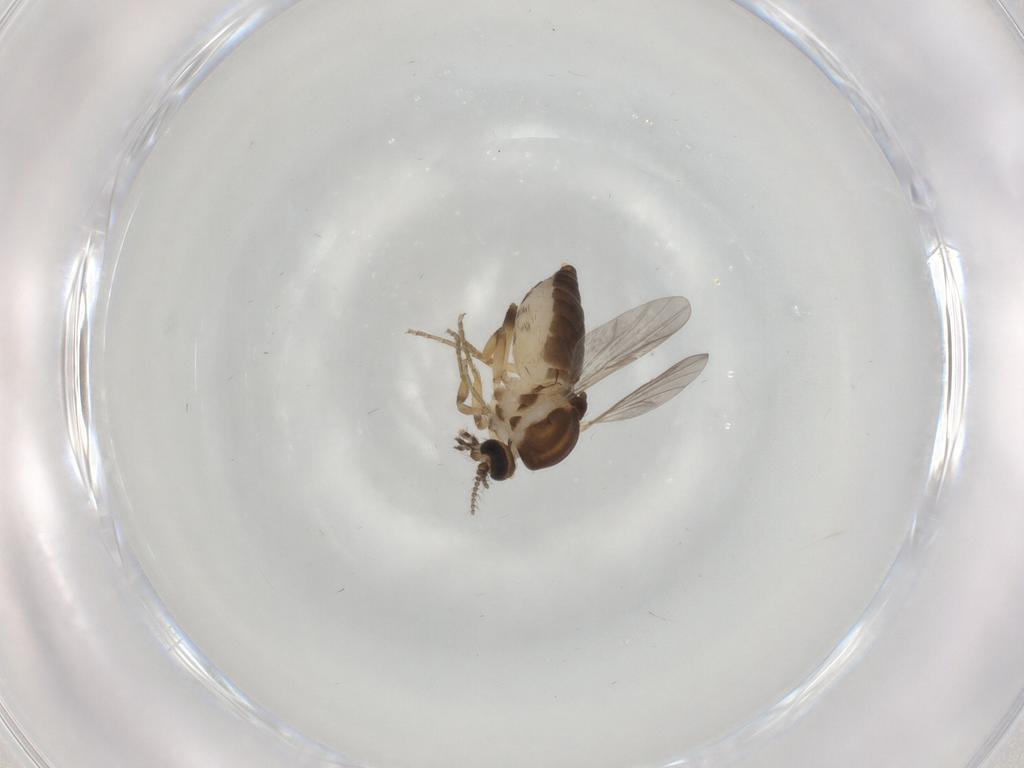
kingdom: Animalia
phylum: Arthropoda
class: Insecta
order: Diptera
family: Ceratopogonidae
